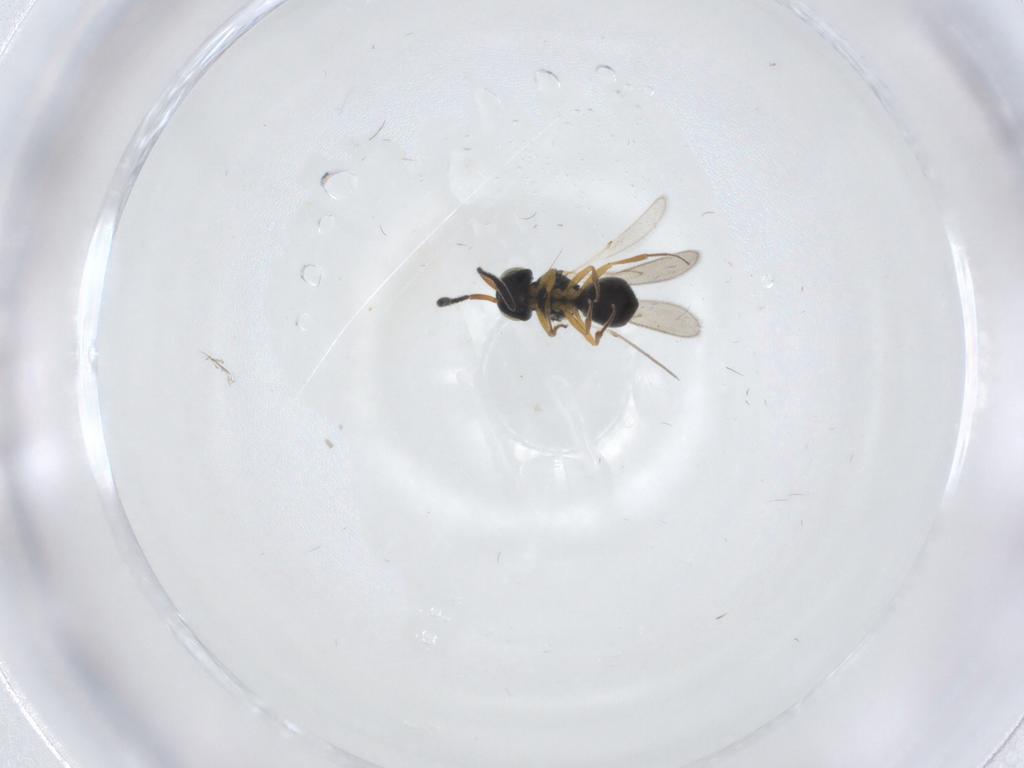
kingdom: Animalia
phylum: Arthropoda
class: Insecta
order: Hymenoptera
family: Scelionidae
